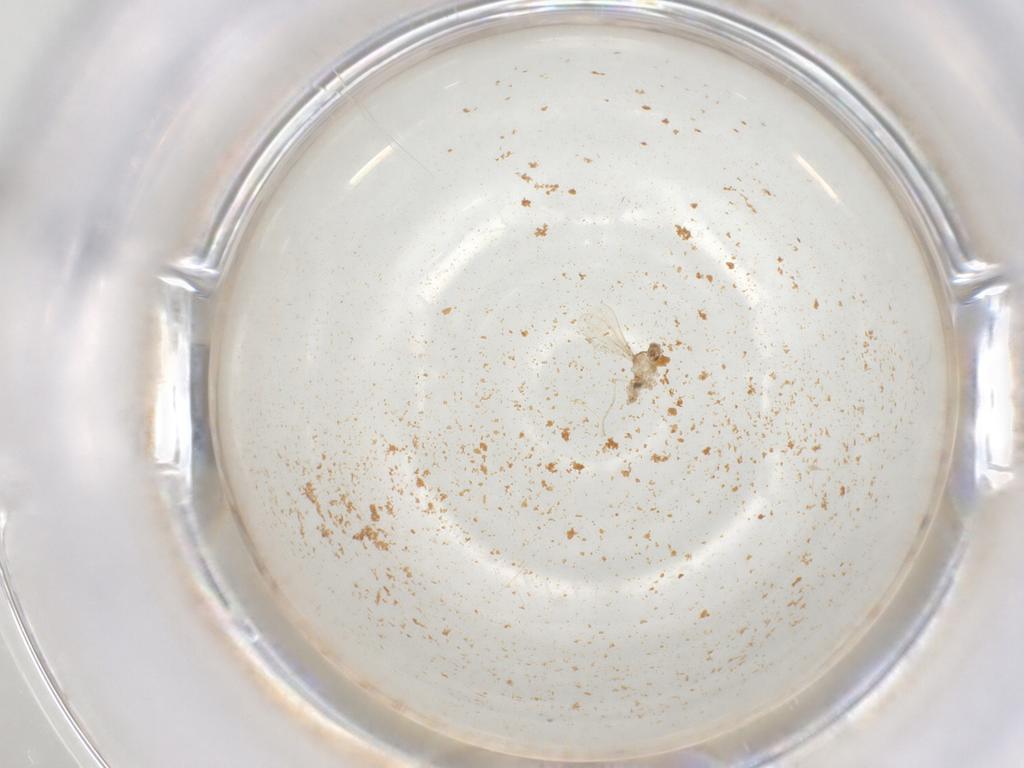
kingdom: Animalia
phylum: Arthropoda
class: Insecta
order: Diptera
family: Cecidomyiidae
